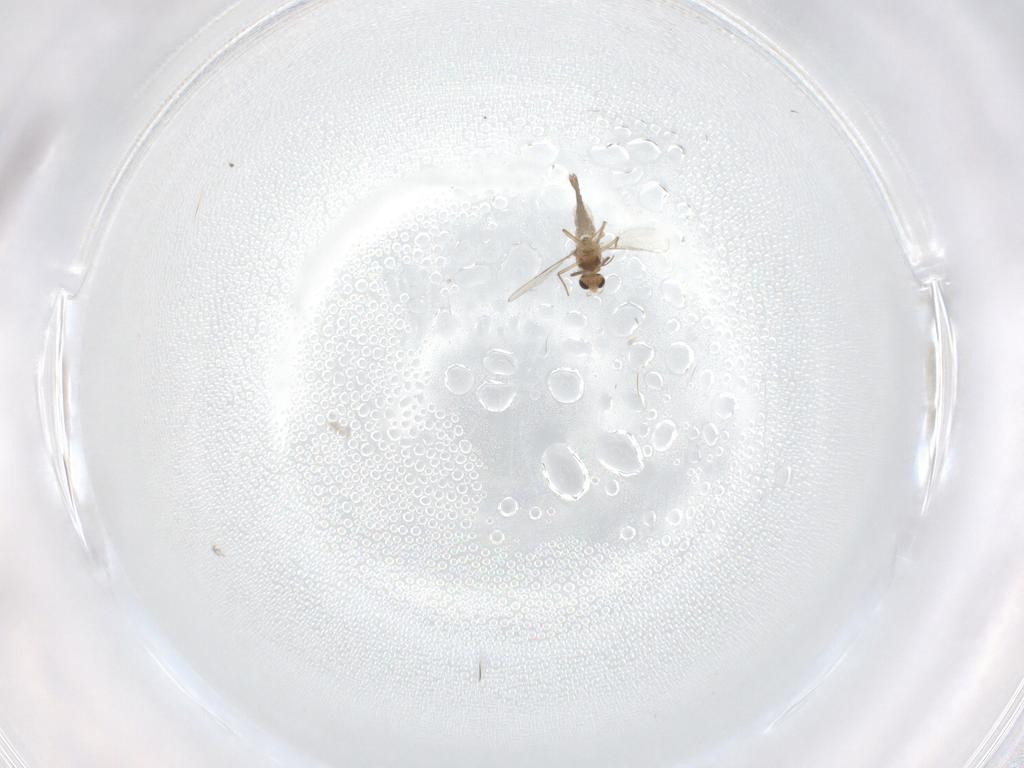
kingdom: Animalia
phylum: Arthropoda
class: Insecta
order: Diptera
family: Chironomidae
